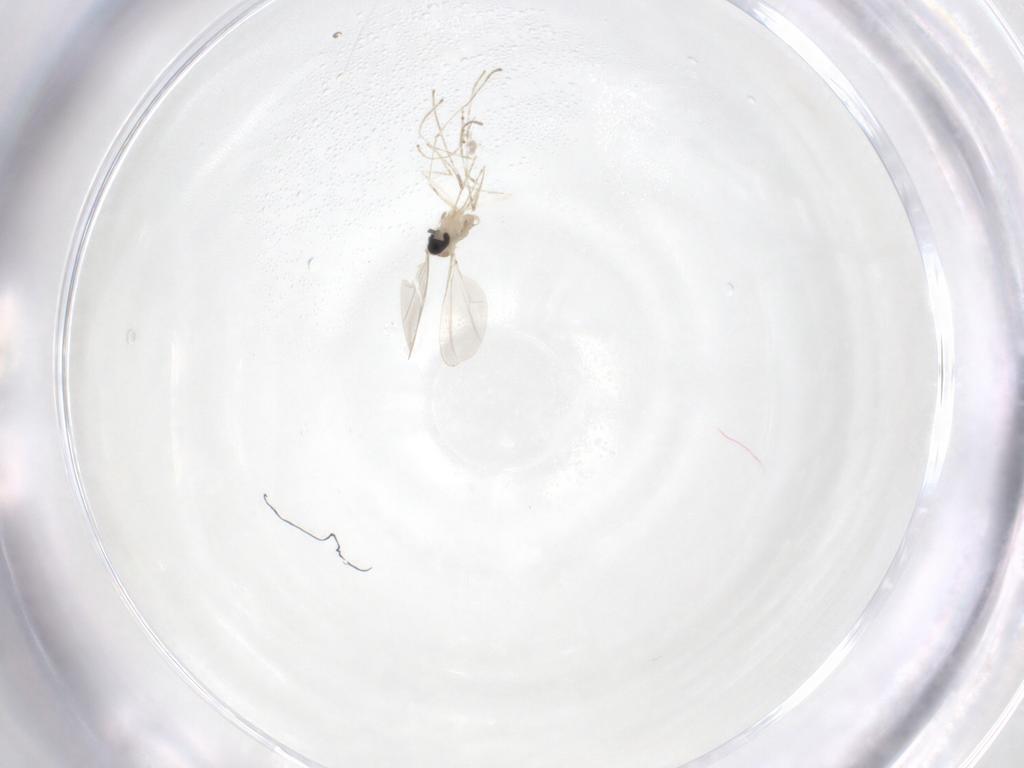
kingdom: Animalia
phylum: Arthropoda
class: Insecta
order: Diptera
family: Cecidomyiidae
